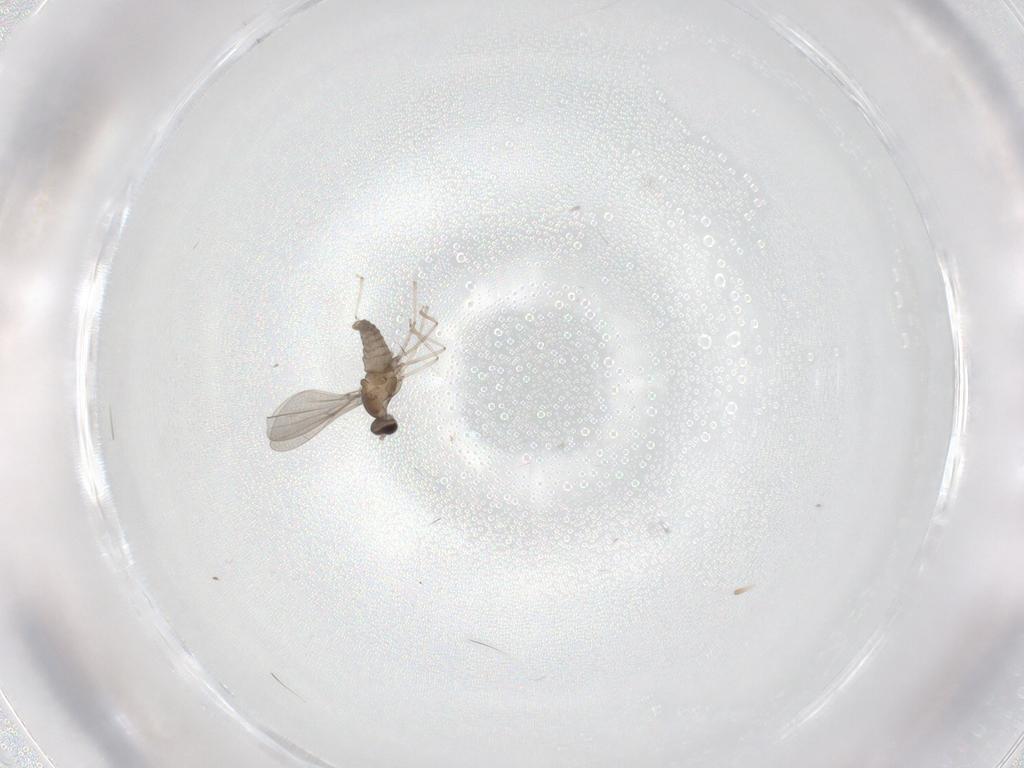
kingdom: Animalia
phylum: Arthropoda
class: Insecta
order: Diptera
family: Cecidomyiidae
